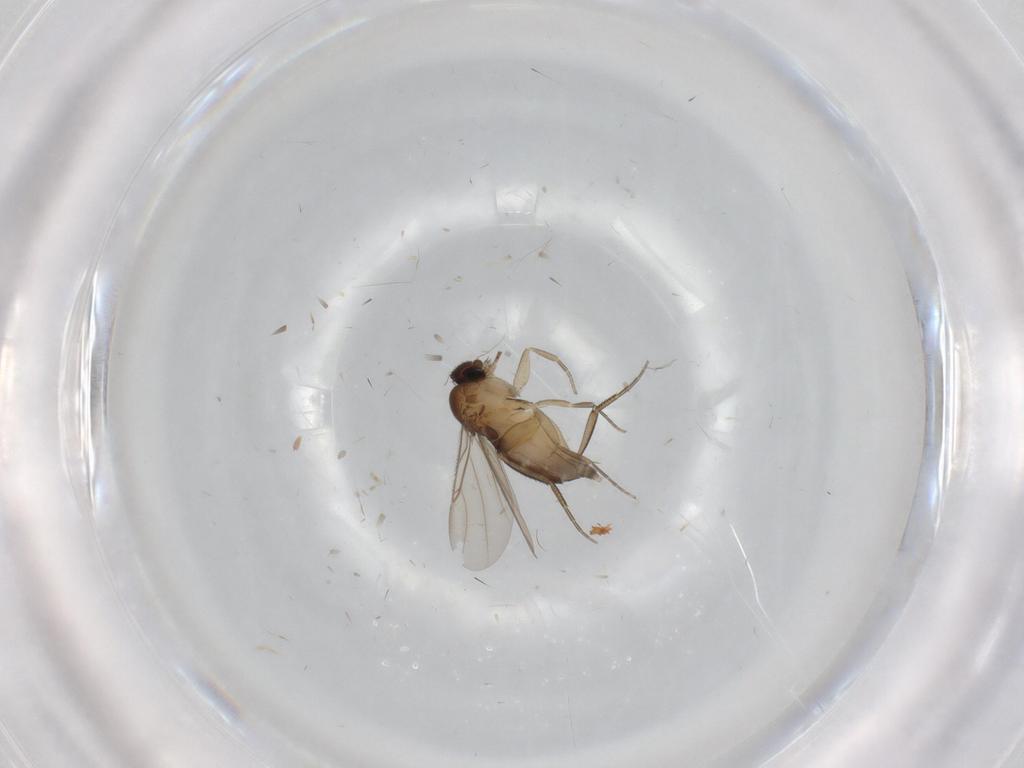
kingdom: Animalia
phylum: Arthropoda
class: Insecta
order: Diptera
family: Phoridae
